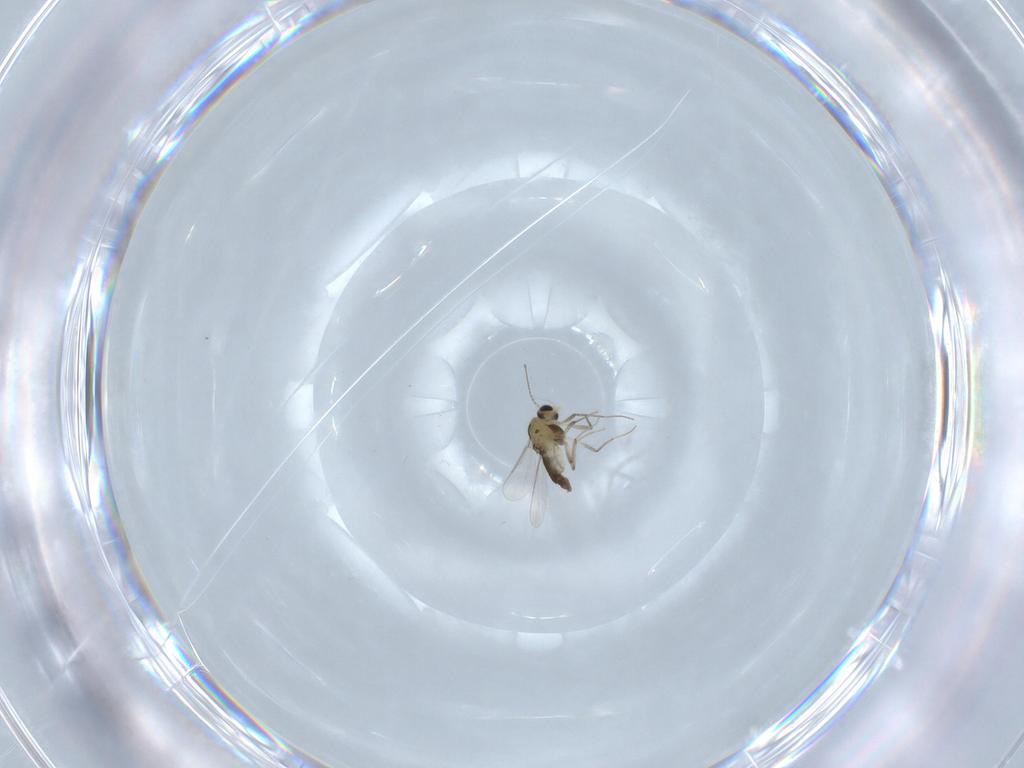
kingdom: Animalia
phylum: Arthropoda
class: Insecta
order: Diptera
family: Chironomidae
